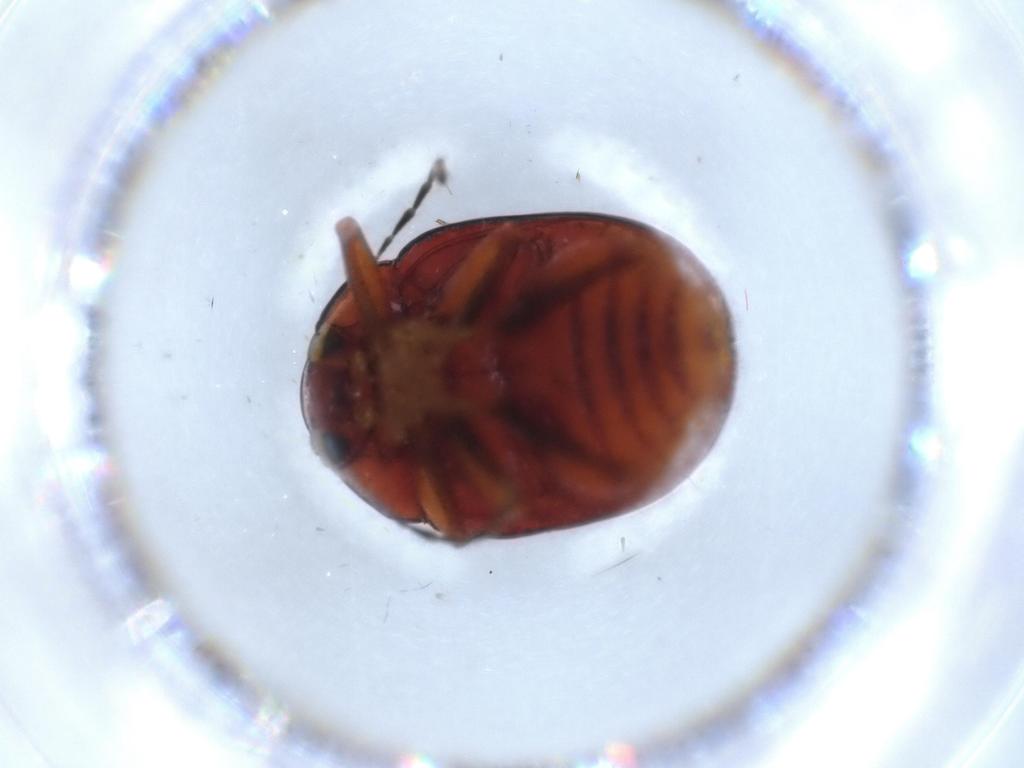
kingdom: Animalia
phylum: Arthropoda
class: Insecta
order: Coleoptera
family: Chrysomelidae
